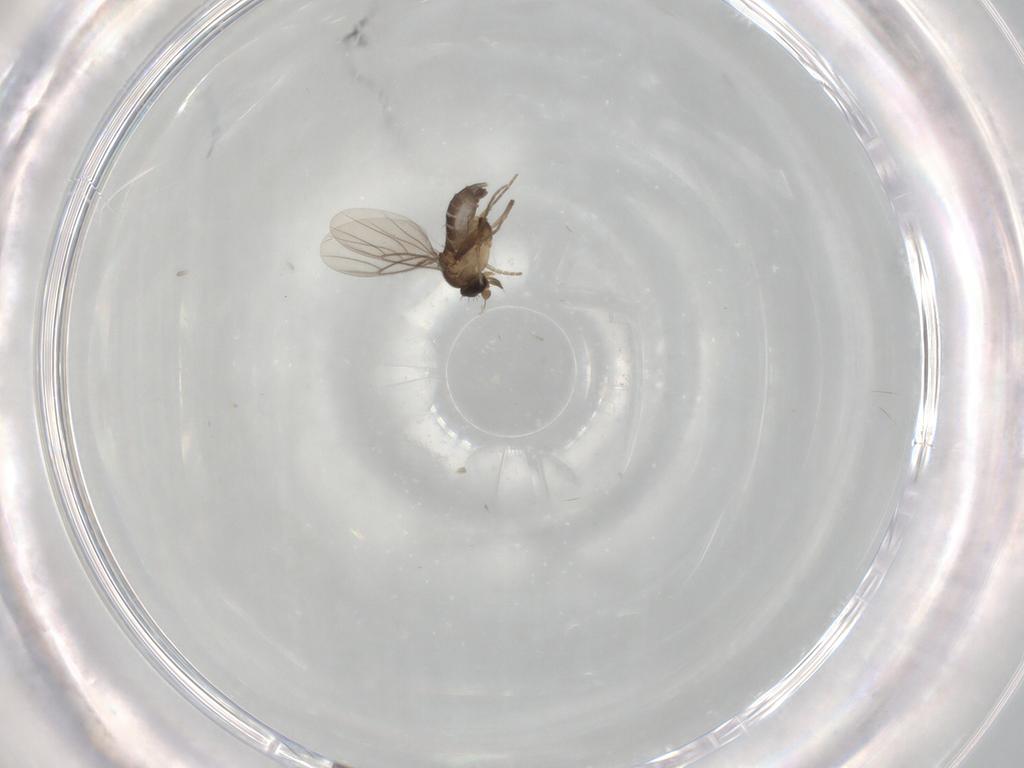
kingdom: Animalia
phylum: Arthropoda
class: Insecta
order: Diptera
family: Phoridae
